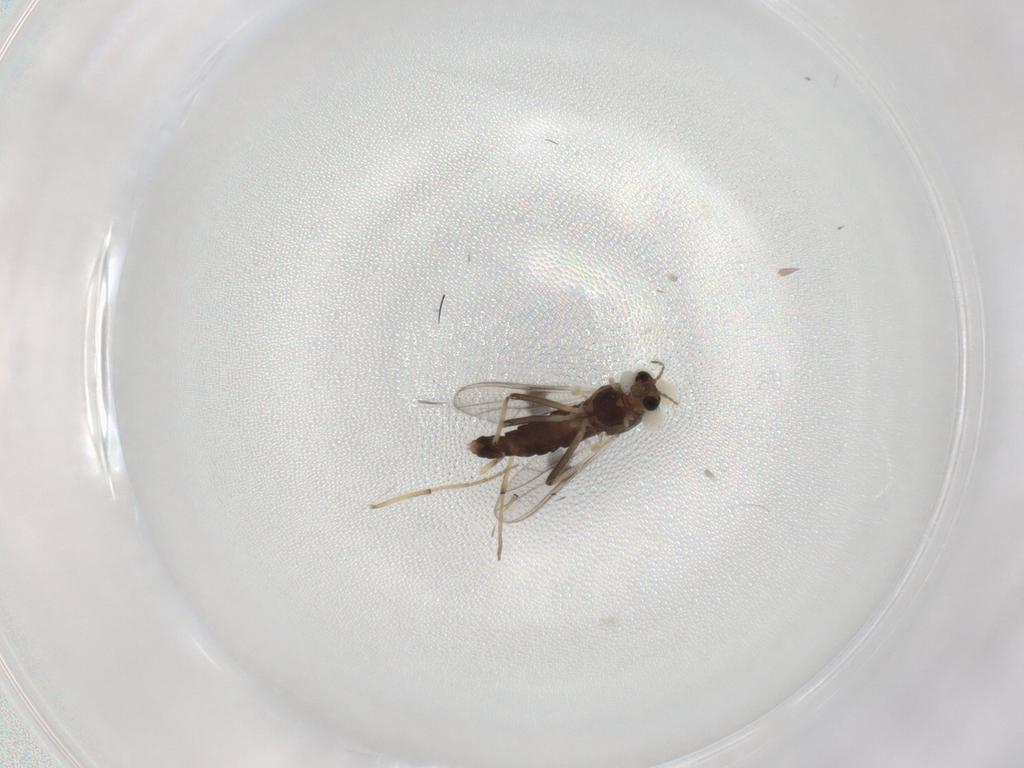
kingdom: Animalia
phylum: Arthropoda
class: Insecta
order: Diptera
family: Chironomidae
